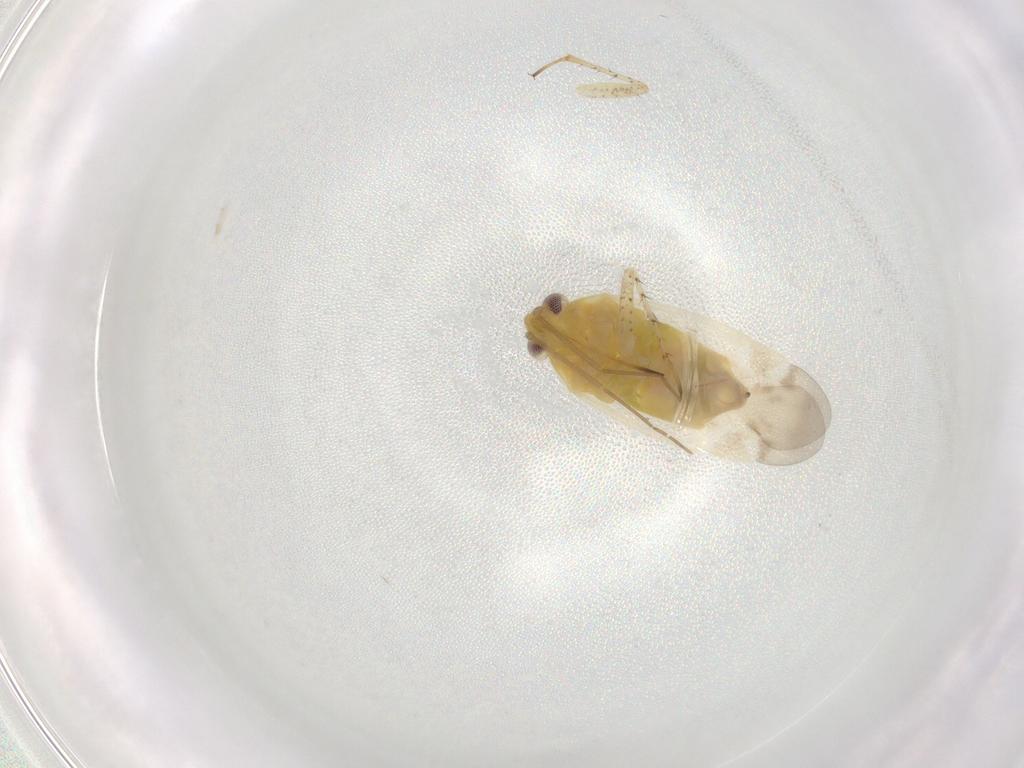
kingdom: Animalia
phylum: Arthropoda
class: Insecta
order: Hemiptera
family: Miridae
